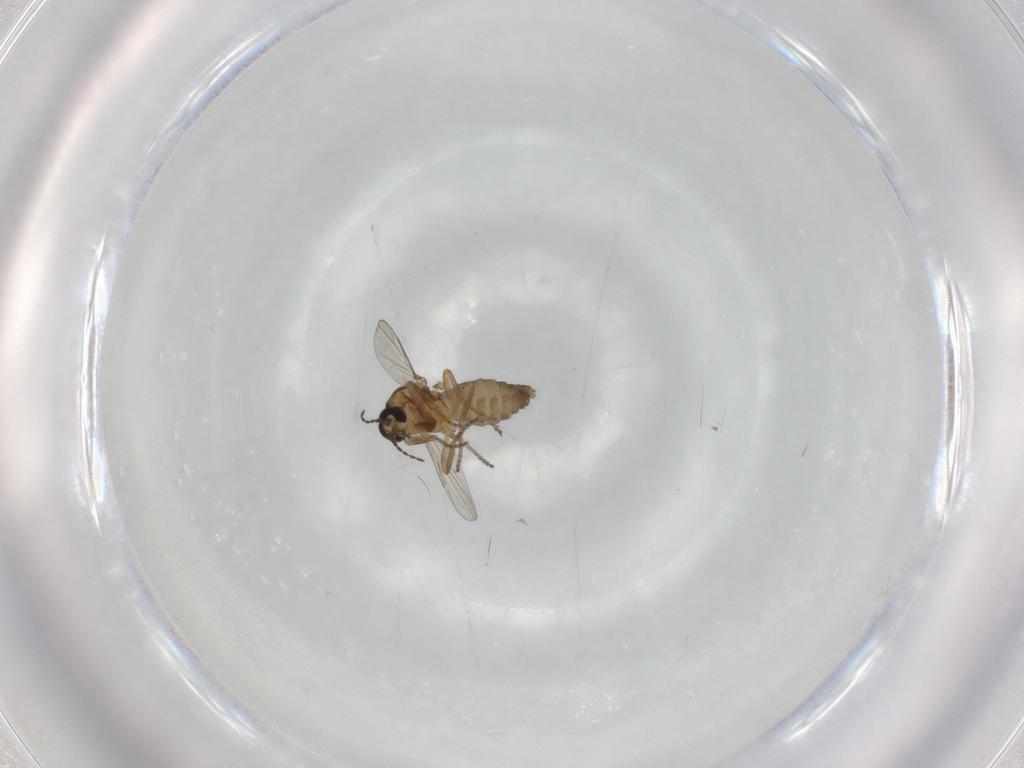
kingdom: Animalia
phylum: Arthropoda
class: Insecta
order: Diptera
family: Ceratopogonidae
